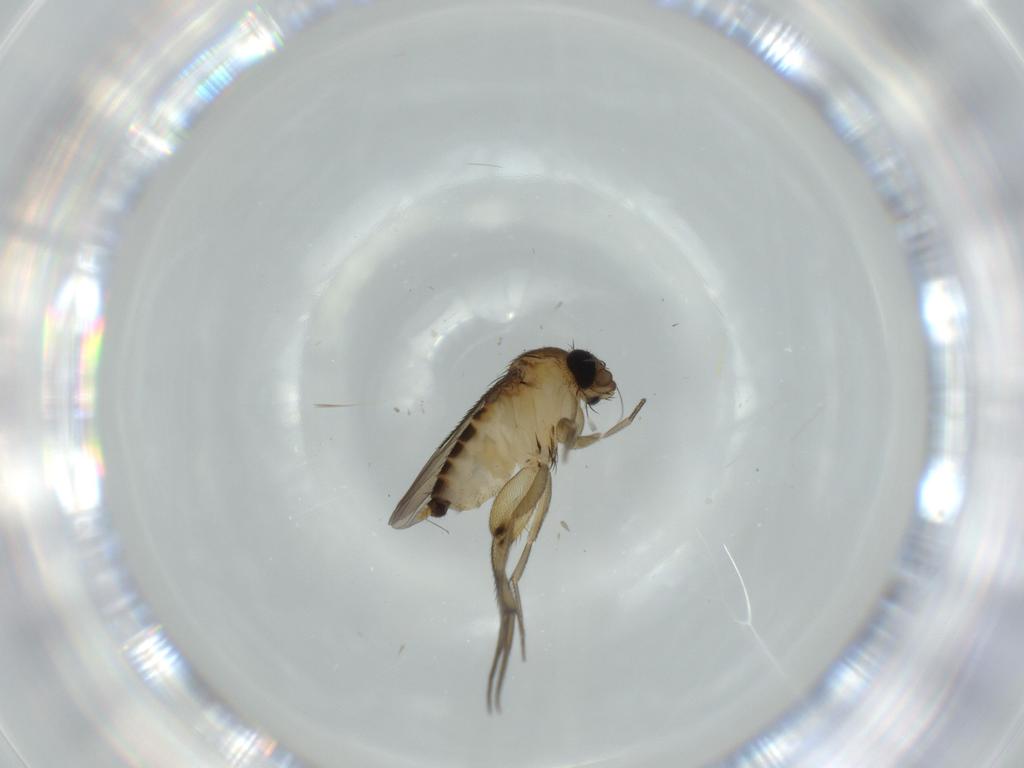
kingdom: Animalia
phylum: Arthropoda
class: Insecta
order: Diptera
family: Phoridae
